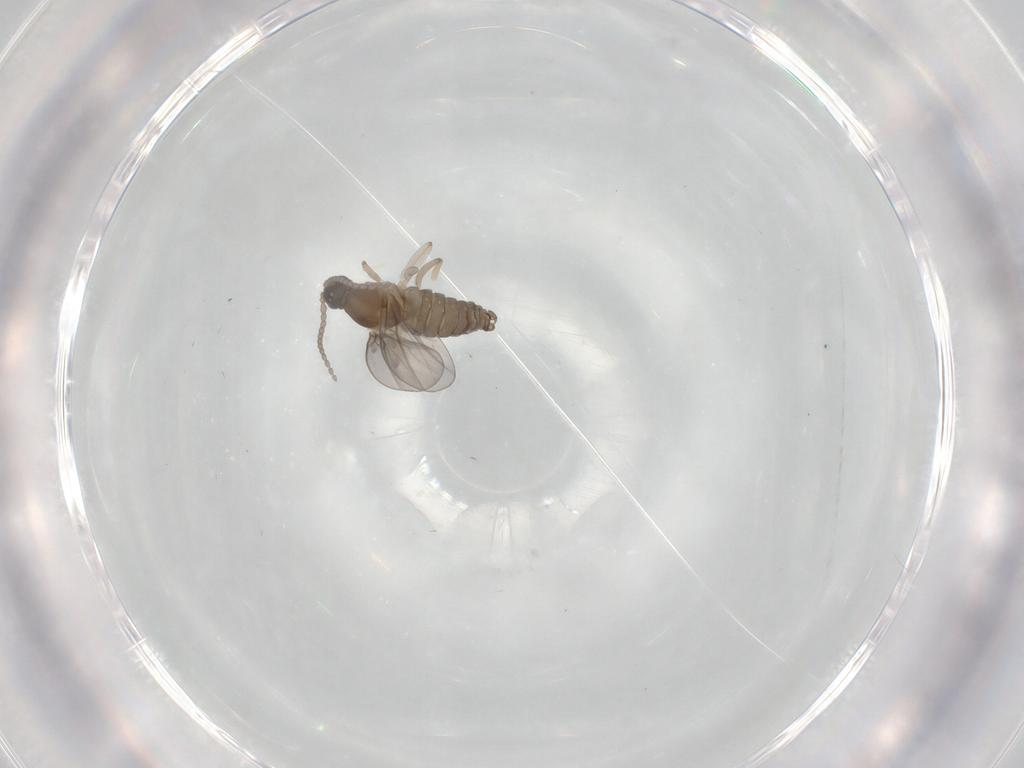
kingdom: Animalia
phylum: Arthropoda
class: Insecta
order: Diptera
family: Cecidomyiidae
